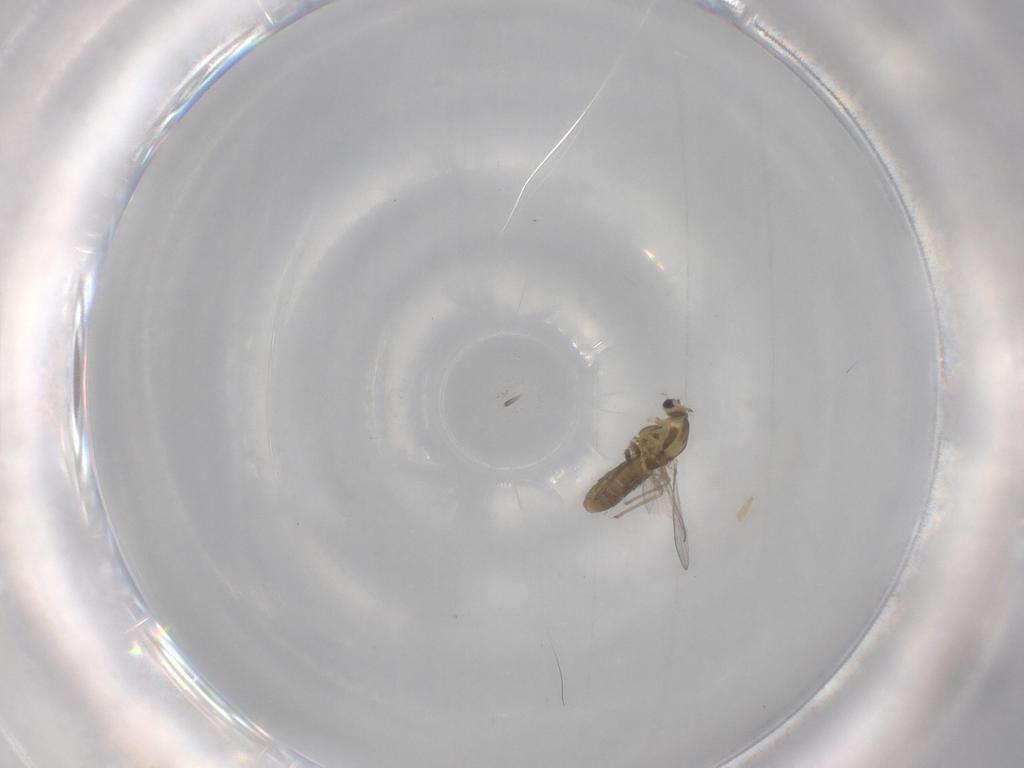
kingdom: Animalia
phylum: Arthropoda
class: Insecta
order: Diptera
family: Chironomidae
